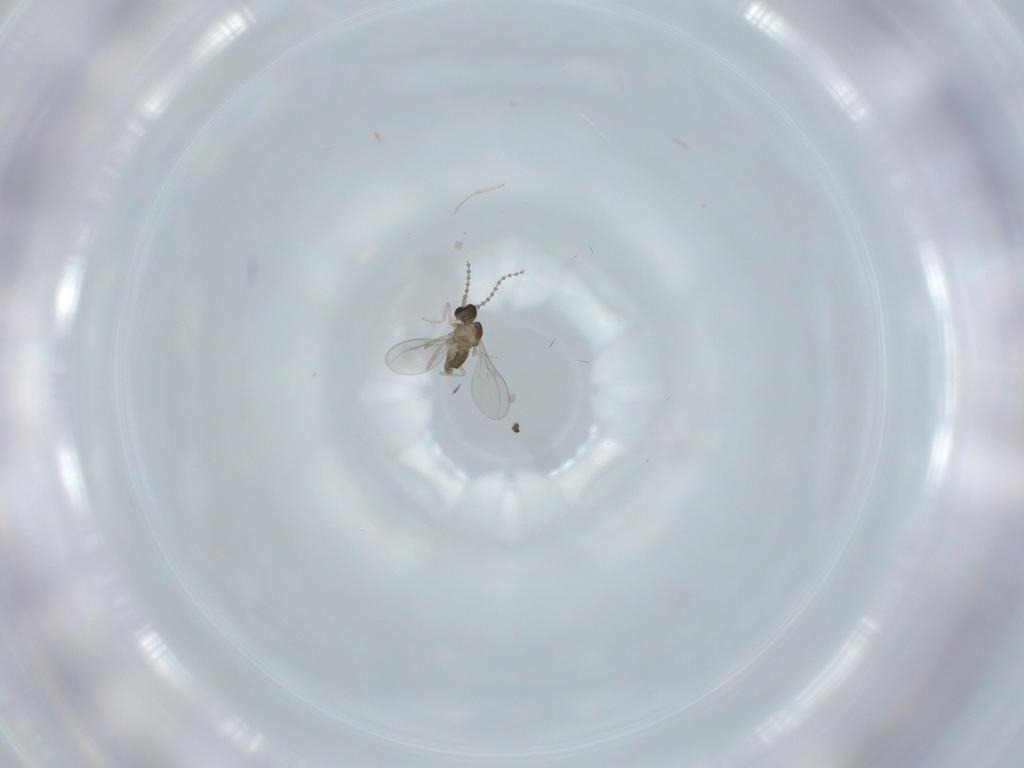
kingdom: Animalia
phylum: Arthropoda
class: Insecta
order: Diptera
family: Cecidomyiidae
